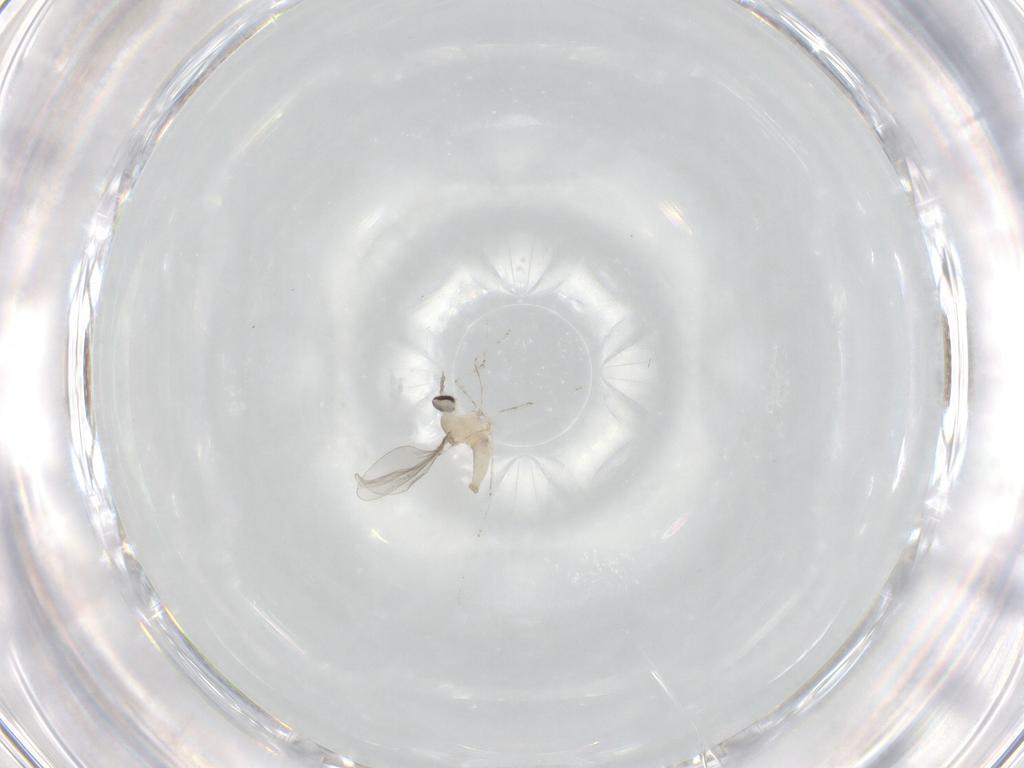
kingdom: Animalia
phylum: Arthropoda
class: Insecta
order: Diptera
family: Cecidomyiidae
